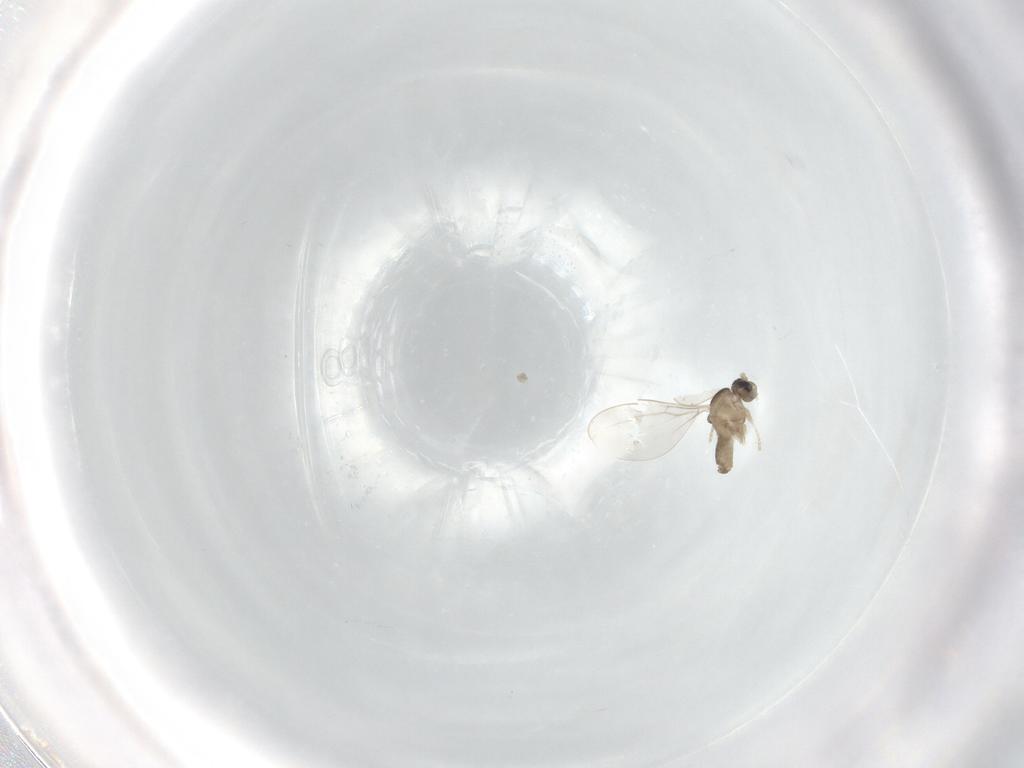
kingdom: Animalia
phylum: Arthropoda
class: Insecta
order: Diptera
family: Cecidomyiidae
